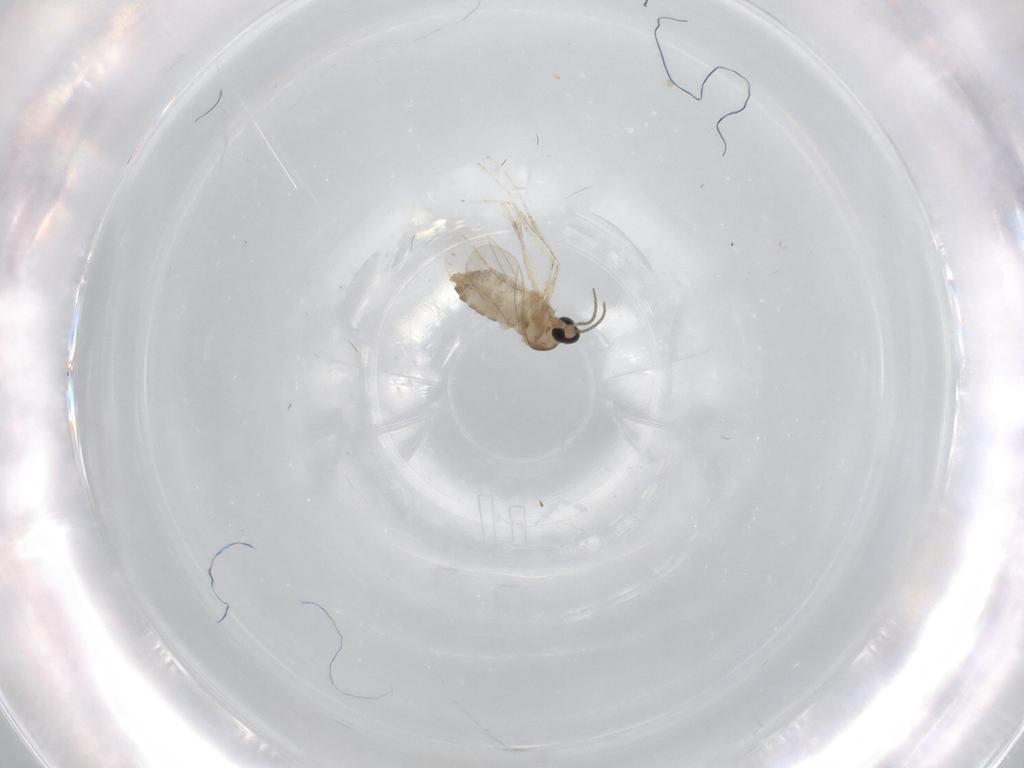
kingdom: Animalia
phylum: Arthropoda
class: Insecta
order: Diptera
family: Cecidomyiidae
